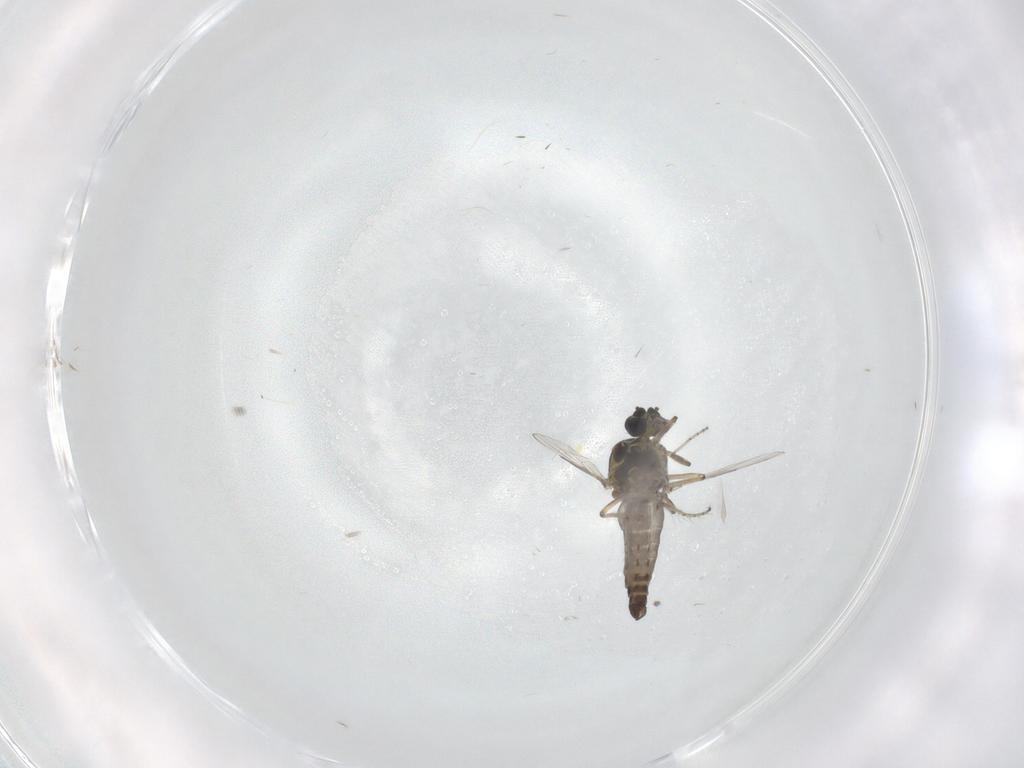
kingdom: Animalia
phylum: Arthropoda
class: Insecta
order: Diptera
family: Ceratopogonidae
